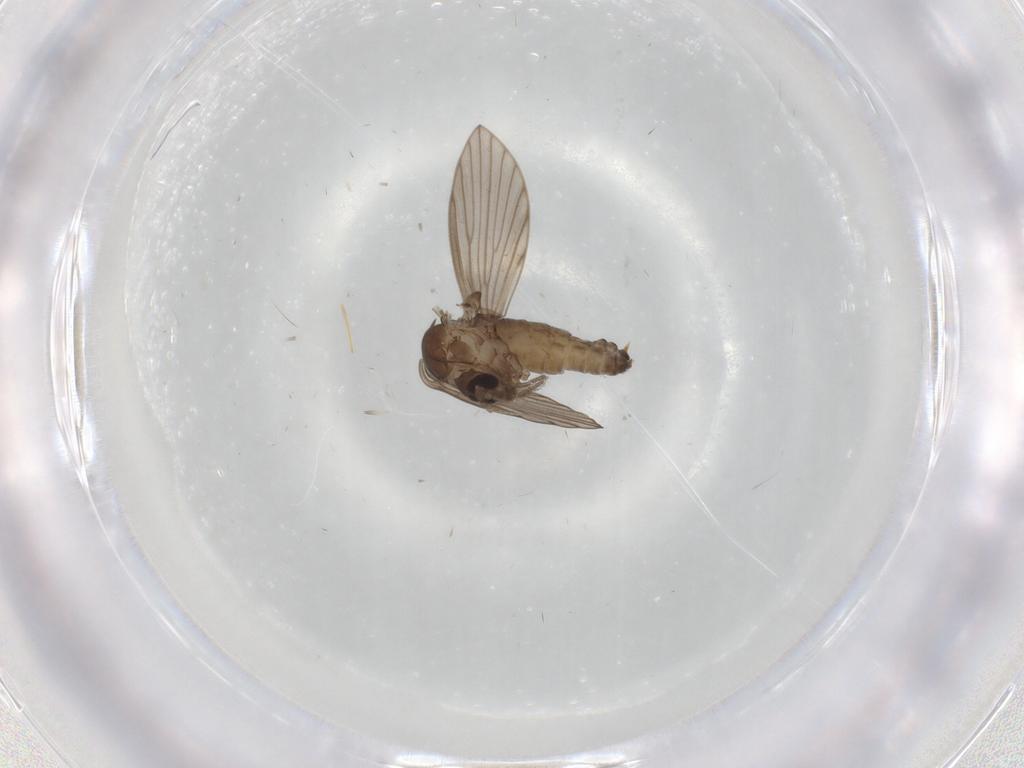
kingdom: Animalia
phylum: Arthropoda
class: Insecta
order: Diptera
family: Psychodidae
